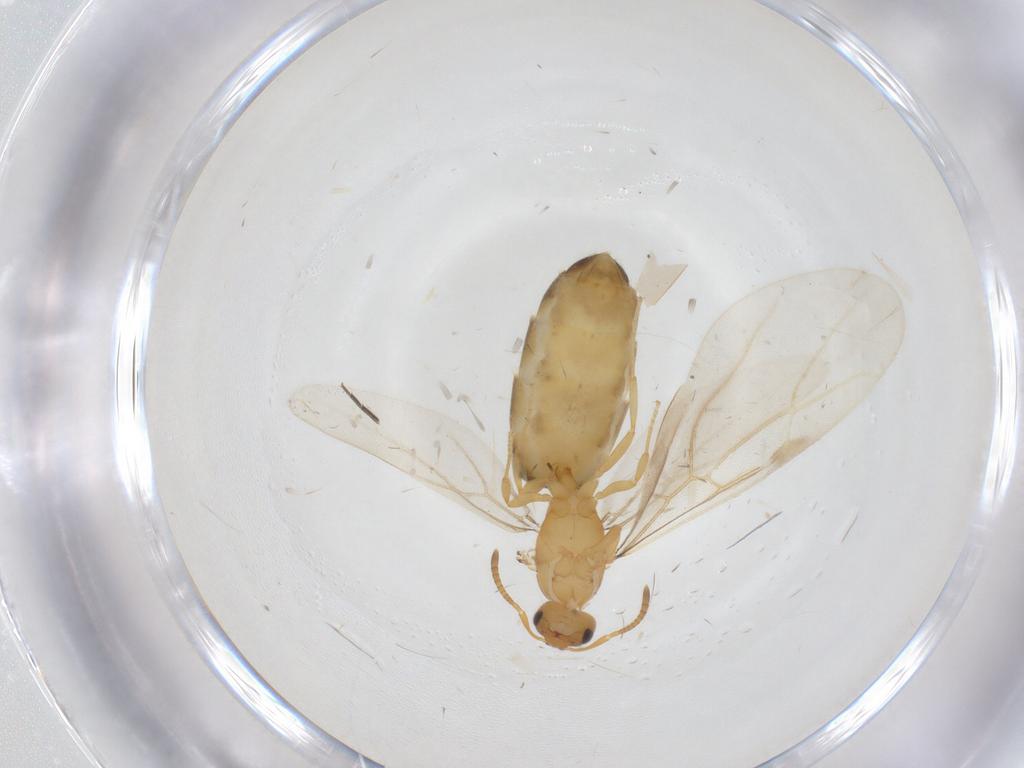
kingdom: Animalia
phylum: Arthropoda
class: Insecta
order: Hymenoptera
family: Formicidae
